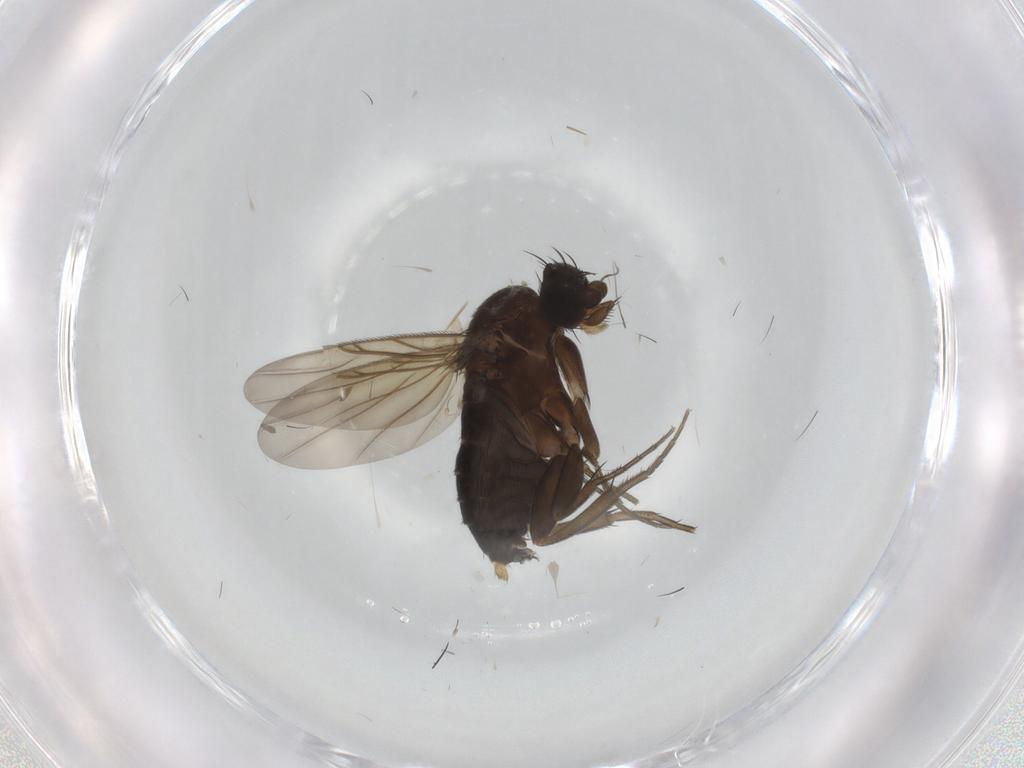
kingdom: Animalia
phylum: Arthropoda
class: Insecta
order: Diptera
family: Phoridae
